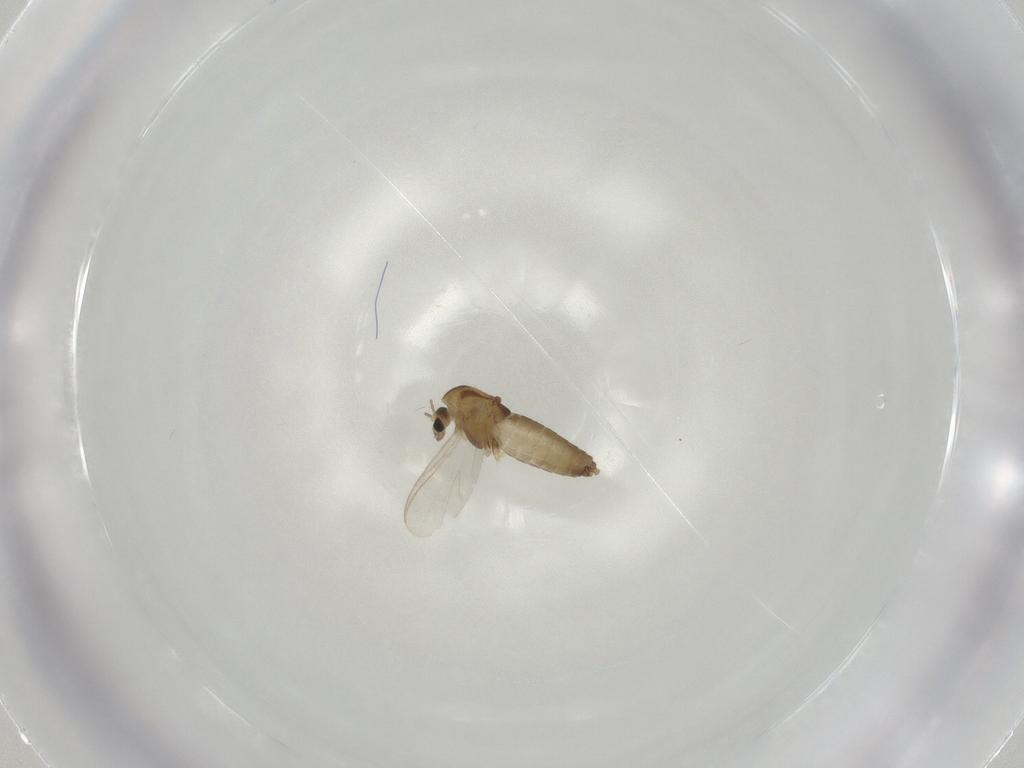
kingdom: Animalia
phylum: Arthropoda
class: Insecta
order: Diptera
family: Chironomidae
